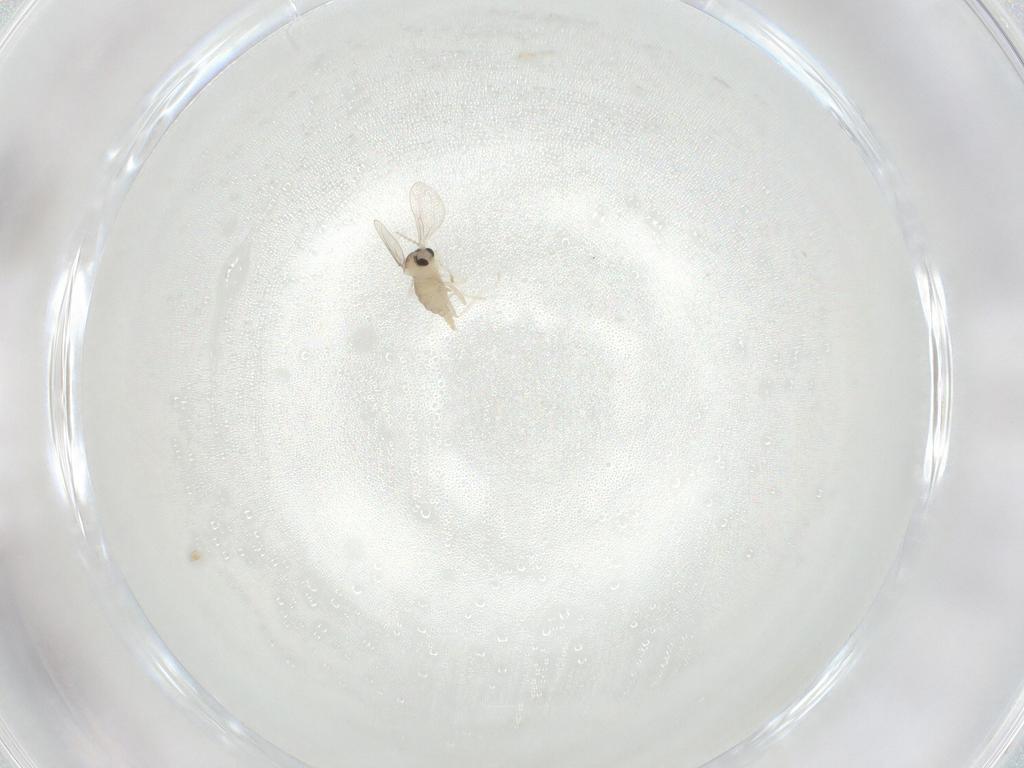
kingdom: Animalia
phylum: Arthropoda
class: Insecta
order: Diptera
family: Cecidomyiidae
